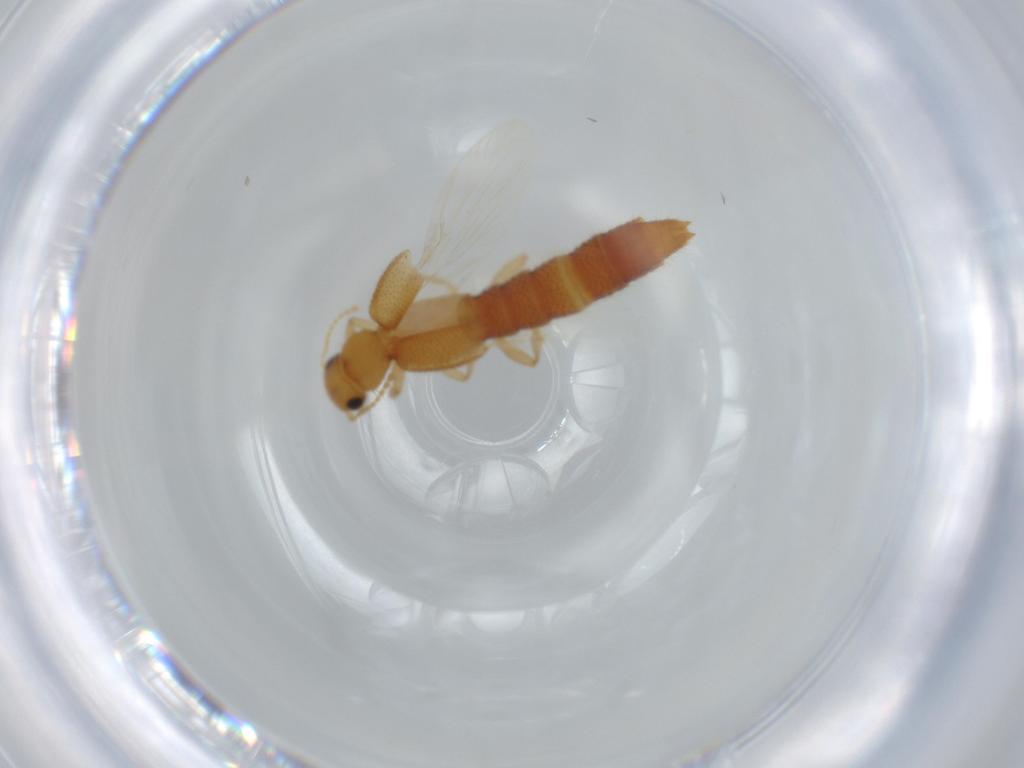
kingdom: Animalia
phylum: Arthropoda
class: Insecta
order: Coleoptera
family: Staphylinidae
